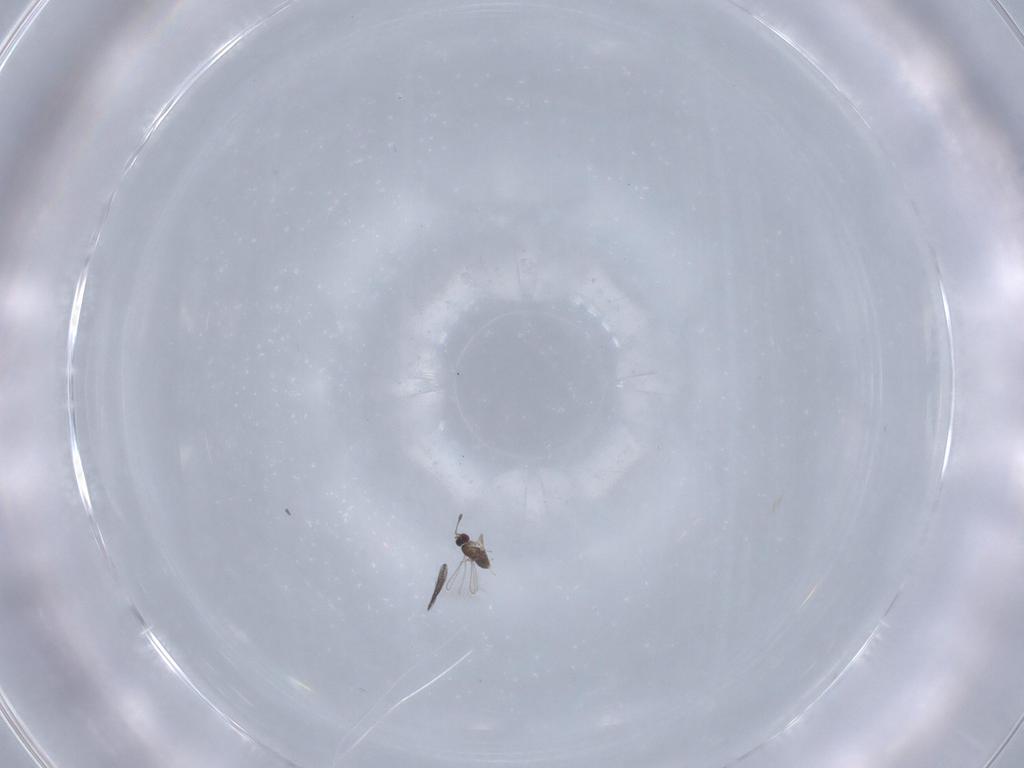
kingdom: Animalia
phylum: Arthropoda
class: Insecta
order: Hymenoptera
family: Mymaridae
